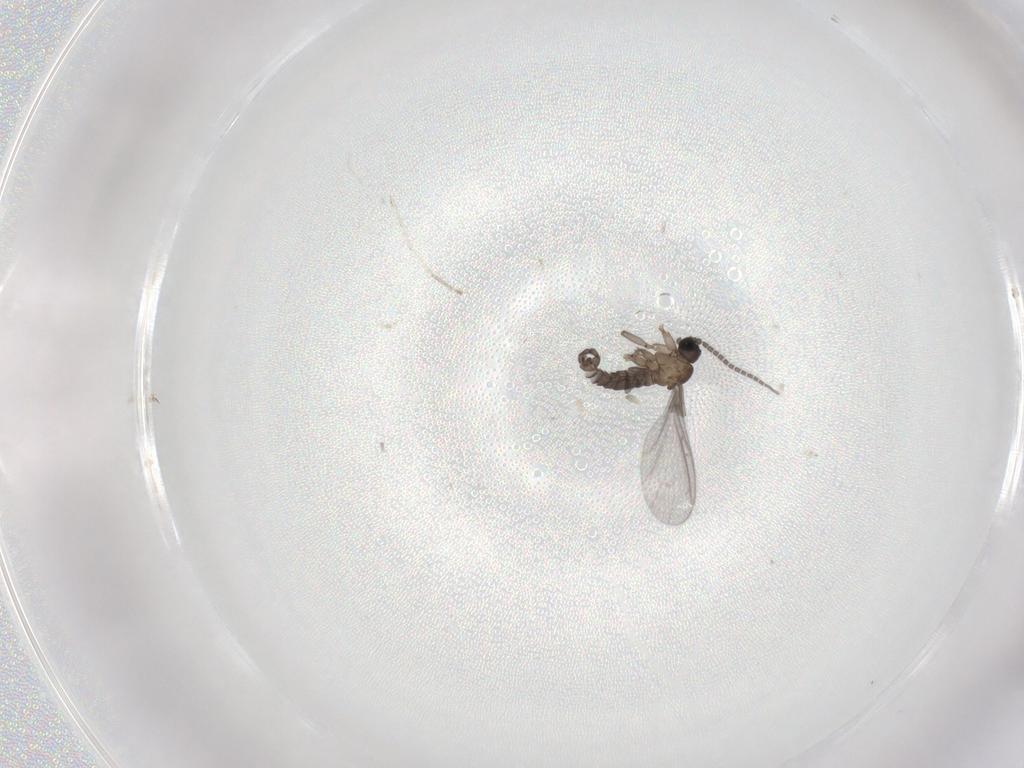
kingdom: Animalia
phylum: Arthropoda
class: Insecta
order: Diptera
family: Sciaridae
